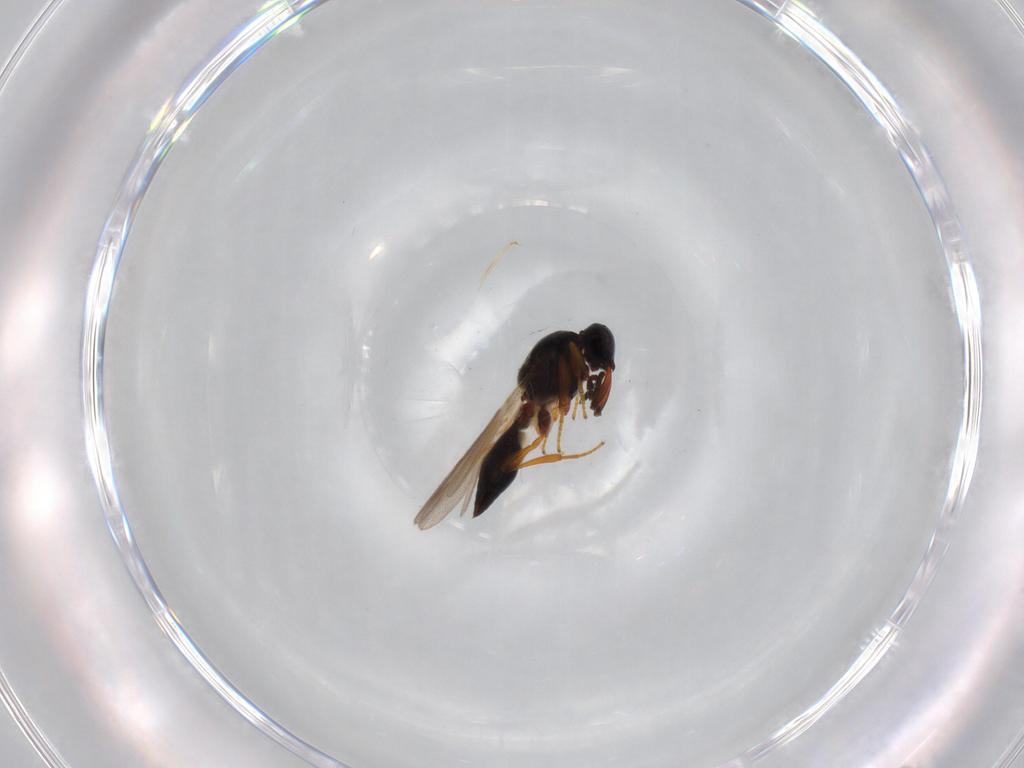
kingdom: Animalia
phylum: Arthropoda
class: Insecta
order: Hymenoptera
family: Platygastridae
